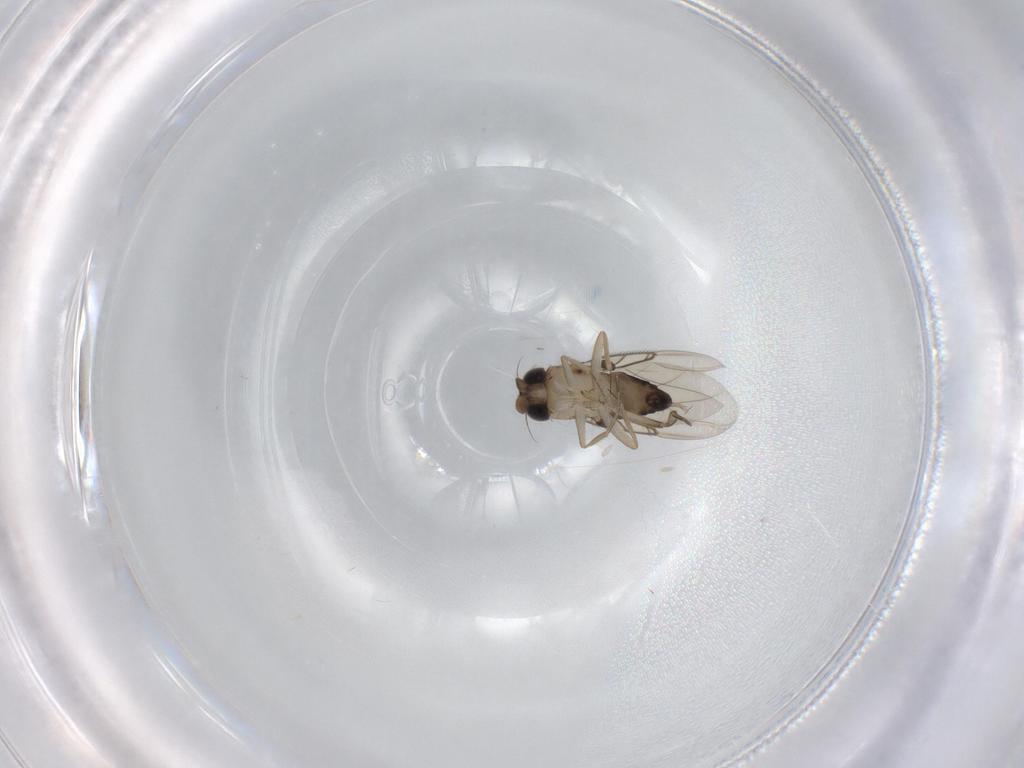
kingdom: Animalia
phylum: Arthropoda
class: Insecta
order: Diptera
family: Phoridae
